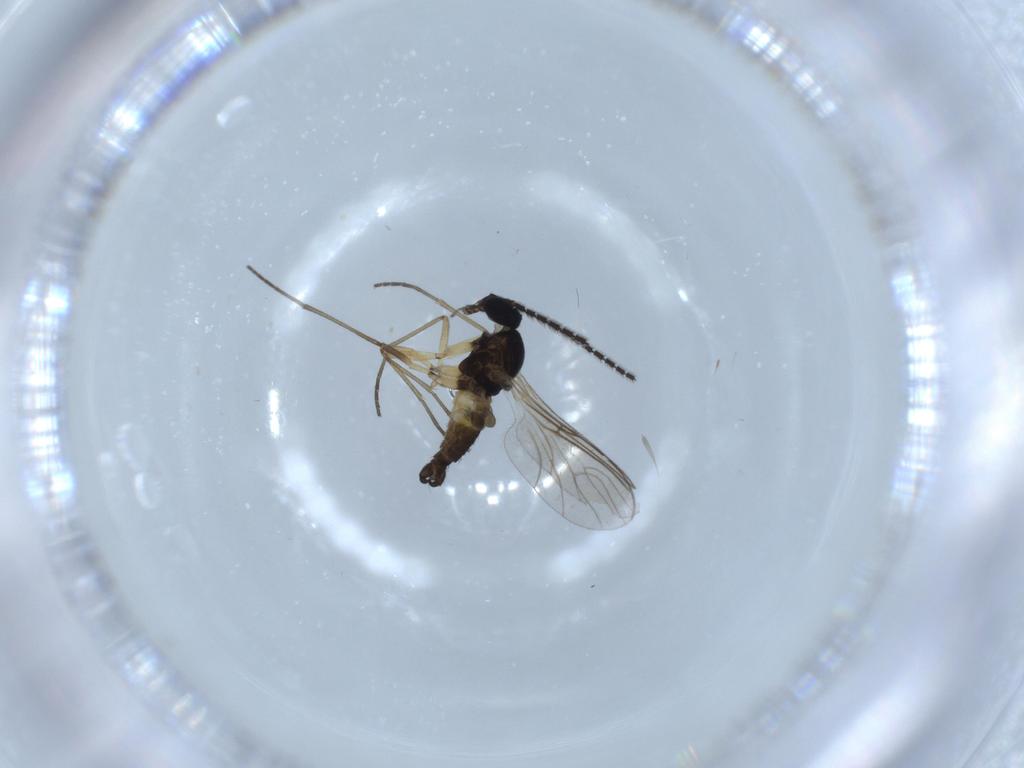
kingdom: Animalia
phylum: Arthropoda
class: Insecta
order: Diptera
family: Sciaridae
